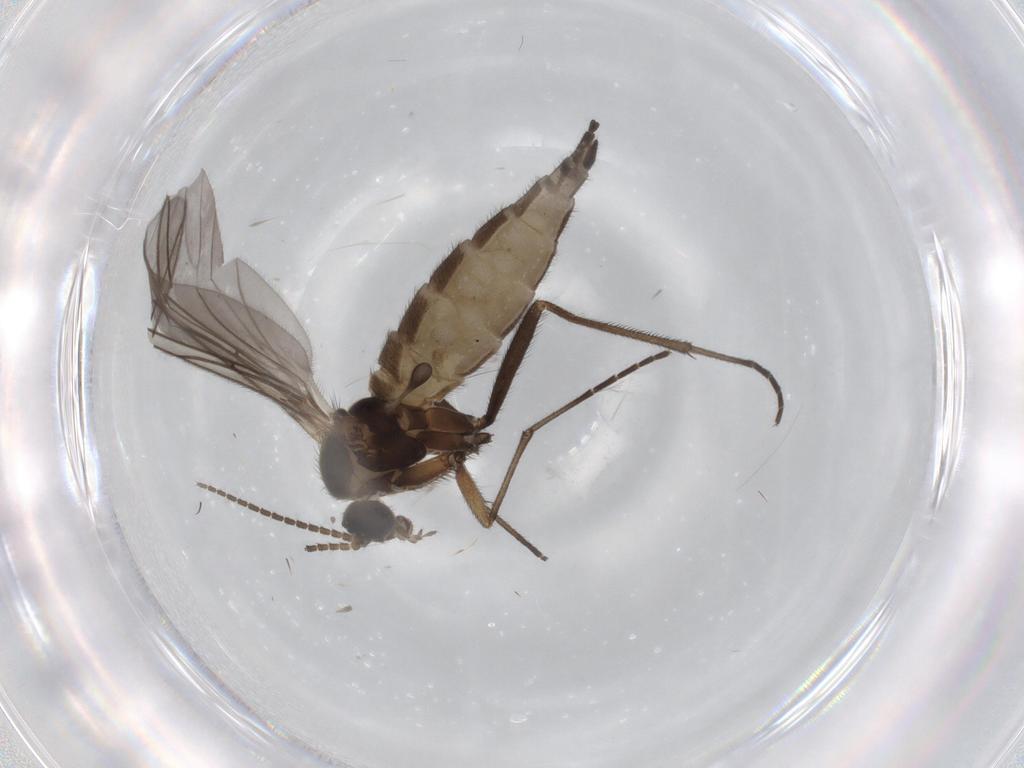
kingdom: Animalia
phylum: Arthropoda
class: Insecta
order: Diptera
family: Sciaridae
